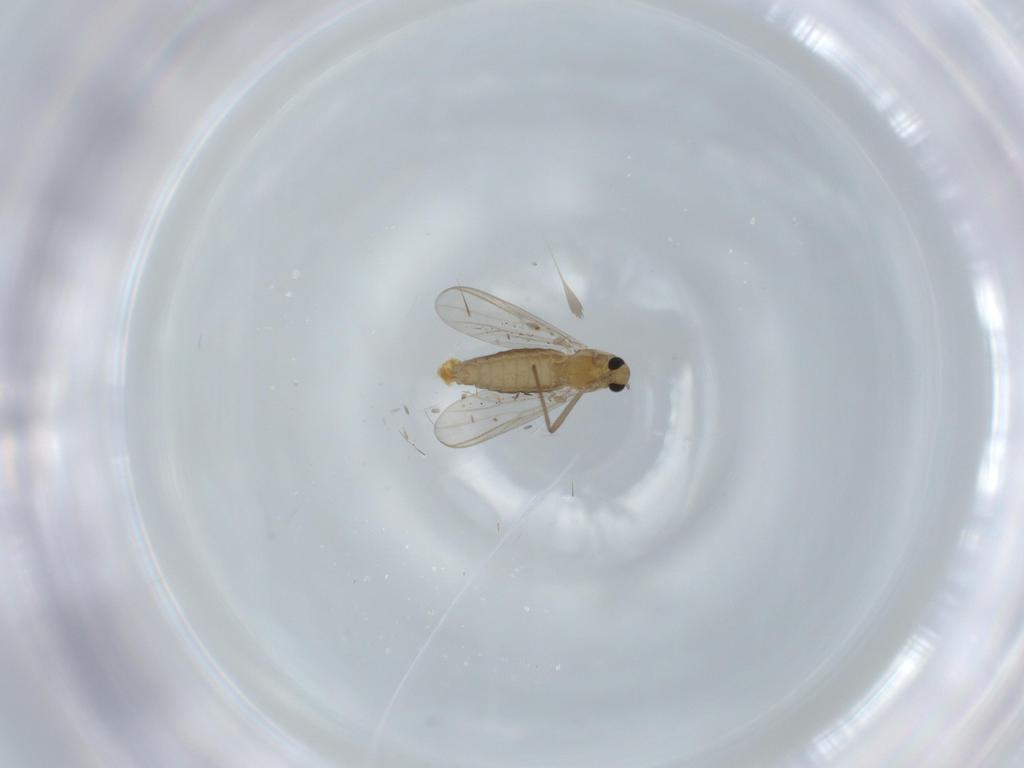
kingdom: Animalia
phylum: Arthropoda
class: Insecta
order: Diptera
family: Chironomidae
